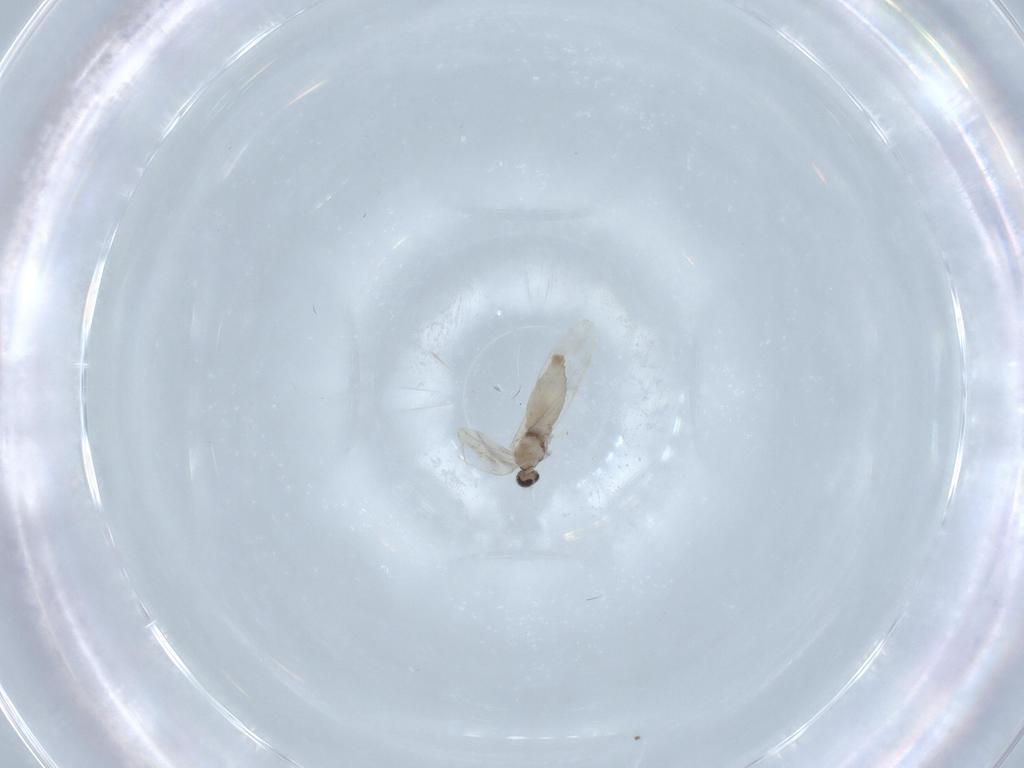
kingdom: Animalia
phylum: Arthropoda
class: Insecta
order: Diptera
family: Cecidomyiidae
